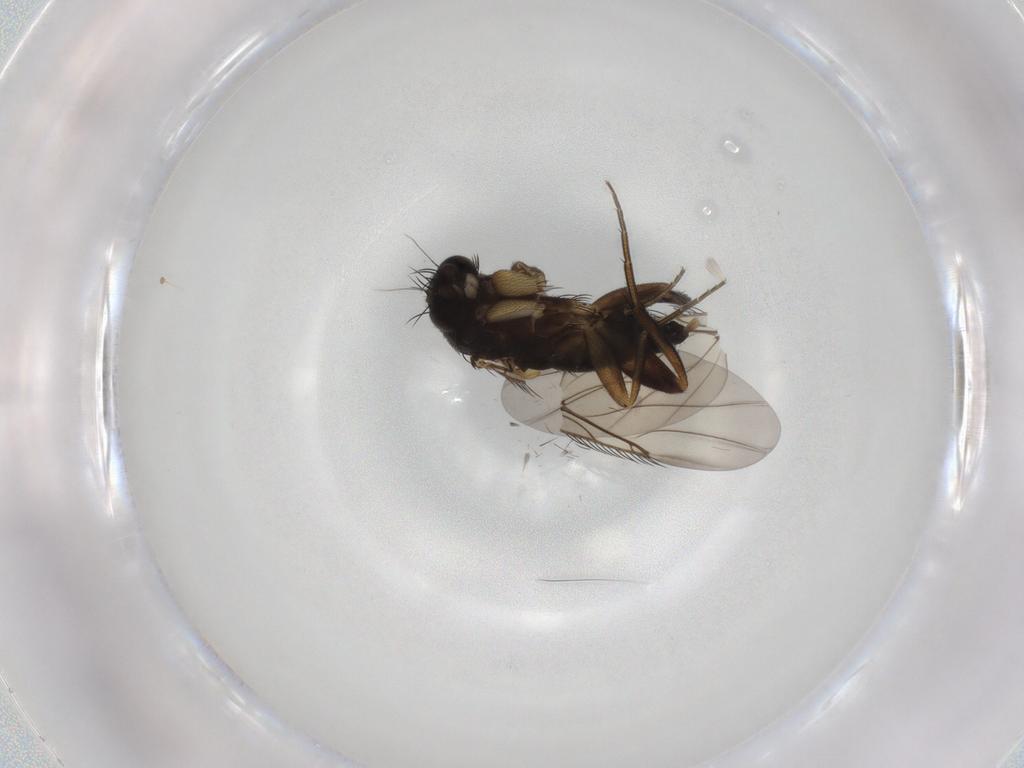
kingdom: Animalia
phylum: Arthropoda
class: Insecta
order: Diptera
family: Phoridae
